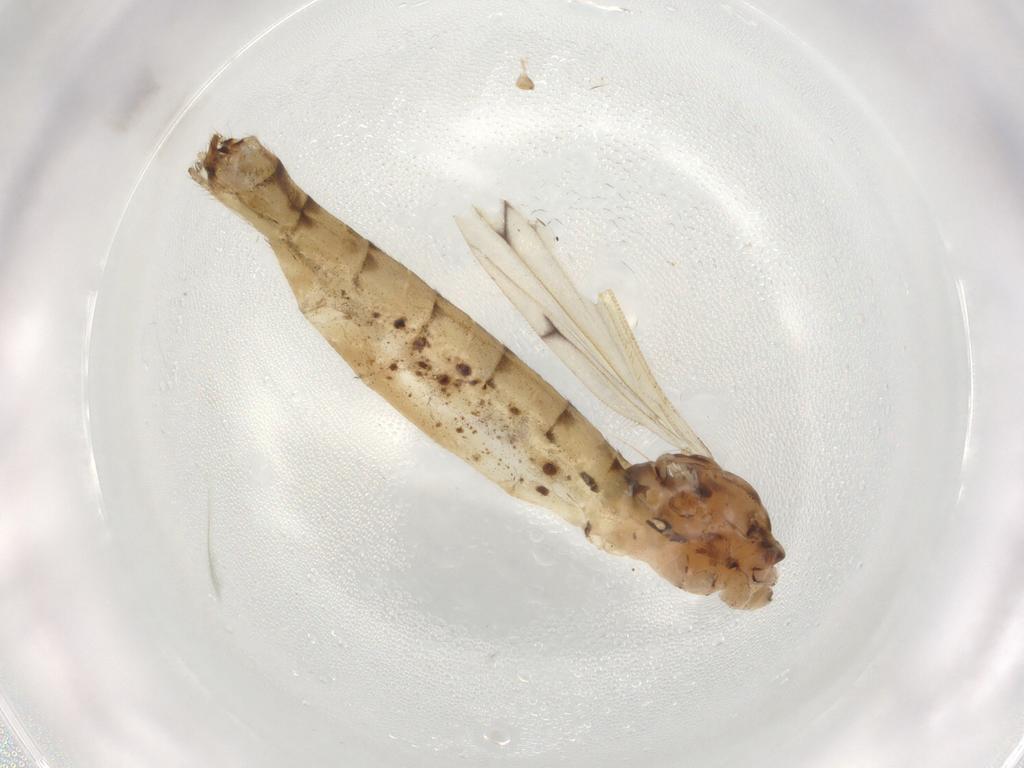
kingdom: Animalia
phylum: Arthropoda
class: Insecta
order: Diptera
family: Limoniidae
